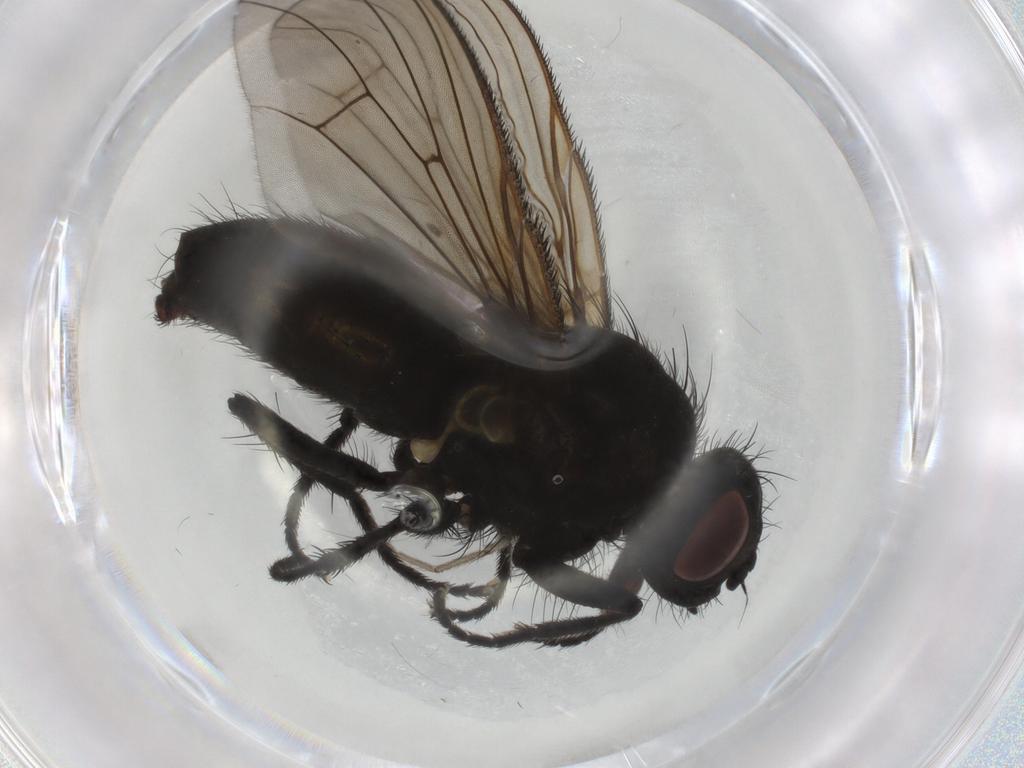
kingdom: Animalia
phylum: Arthropoda
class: Insecta
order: Diptera
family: Muscidae
